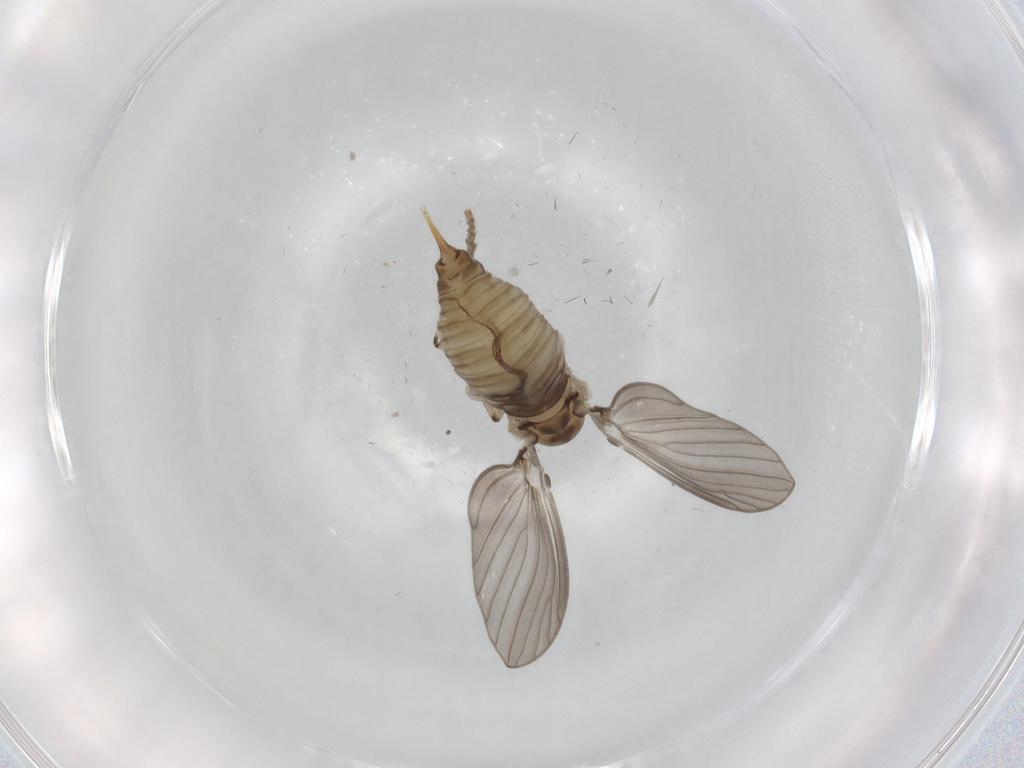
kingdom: Animalia
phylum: Arthropoda
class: Insecta
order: Diptera
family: Psychodidae
